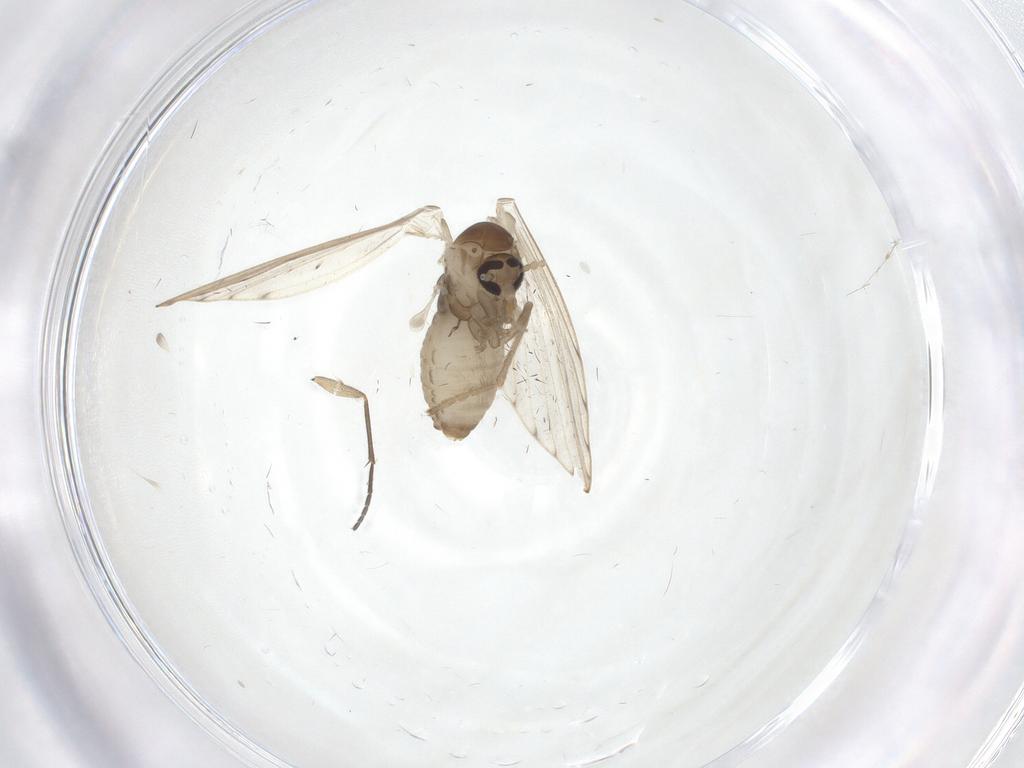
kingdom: Animalia
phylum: Arthropoda
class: Insecta
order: Diptera
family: Psychodidae
